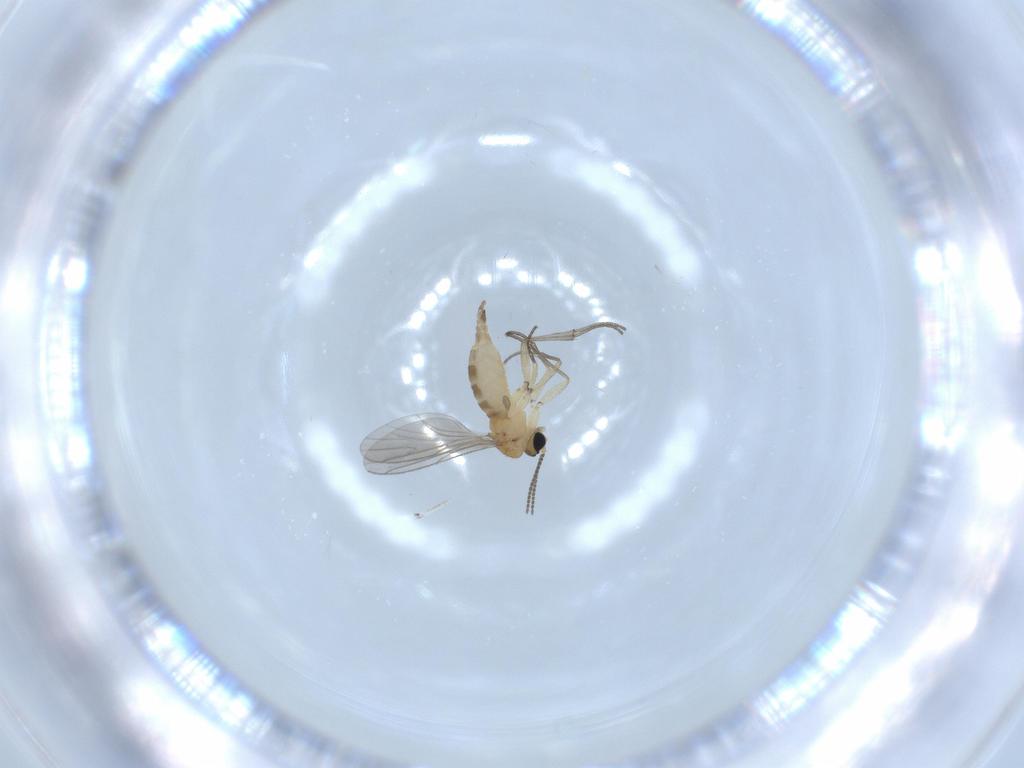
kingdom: Animalia
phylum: Arthropoda
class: Insecta
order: Diptera
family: Sciaridae
